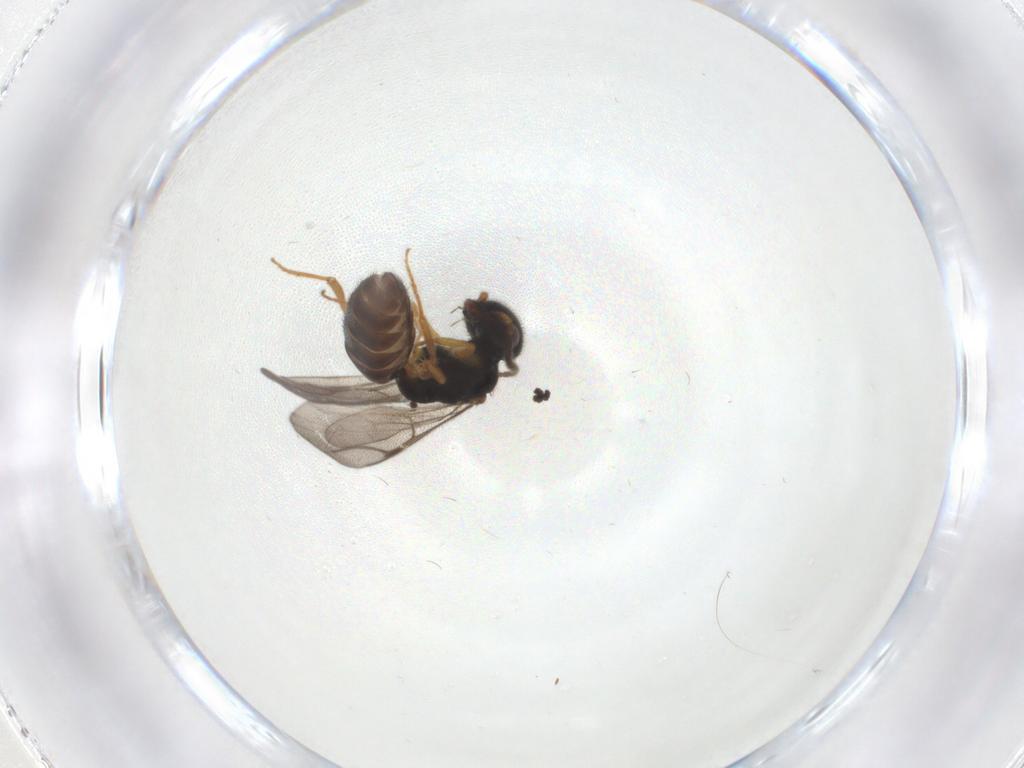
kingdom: Animalia
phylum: Arthropoda
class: Insecta
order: Hymenoptera
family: Bethylidae
